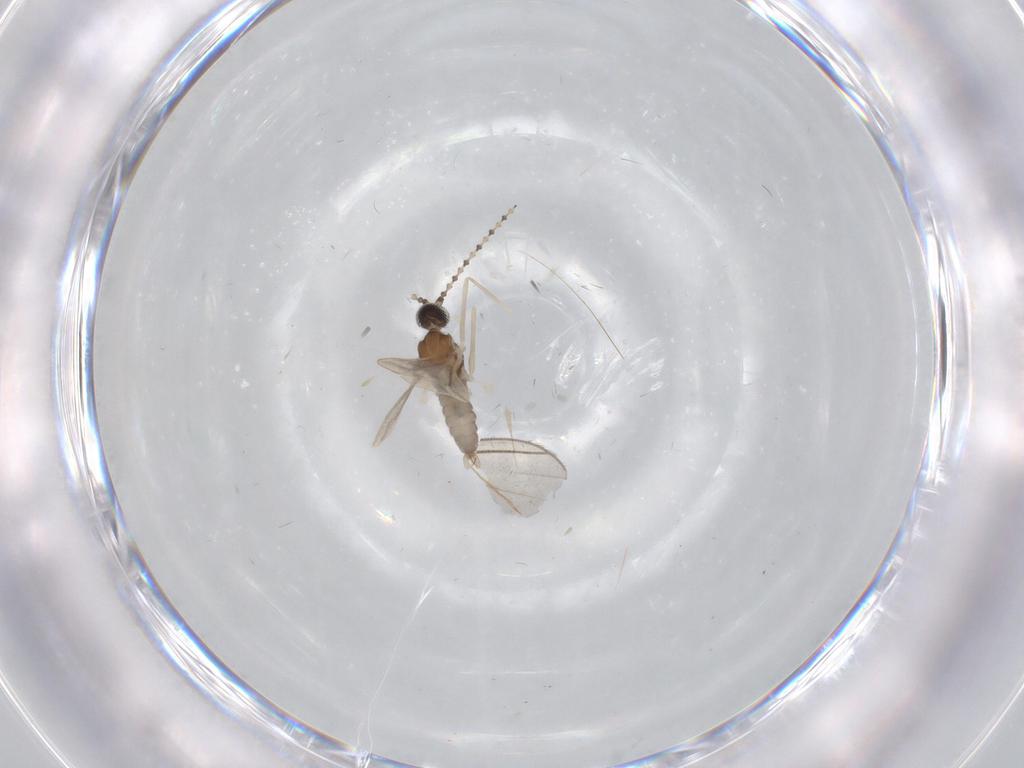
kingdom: Animalia
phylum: Arthropoda
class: Insecta
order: Diptera
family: Cecidomyiidae
